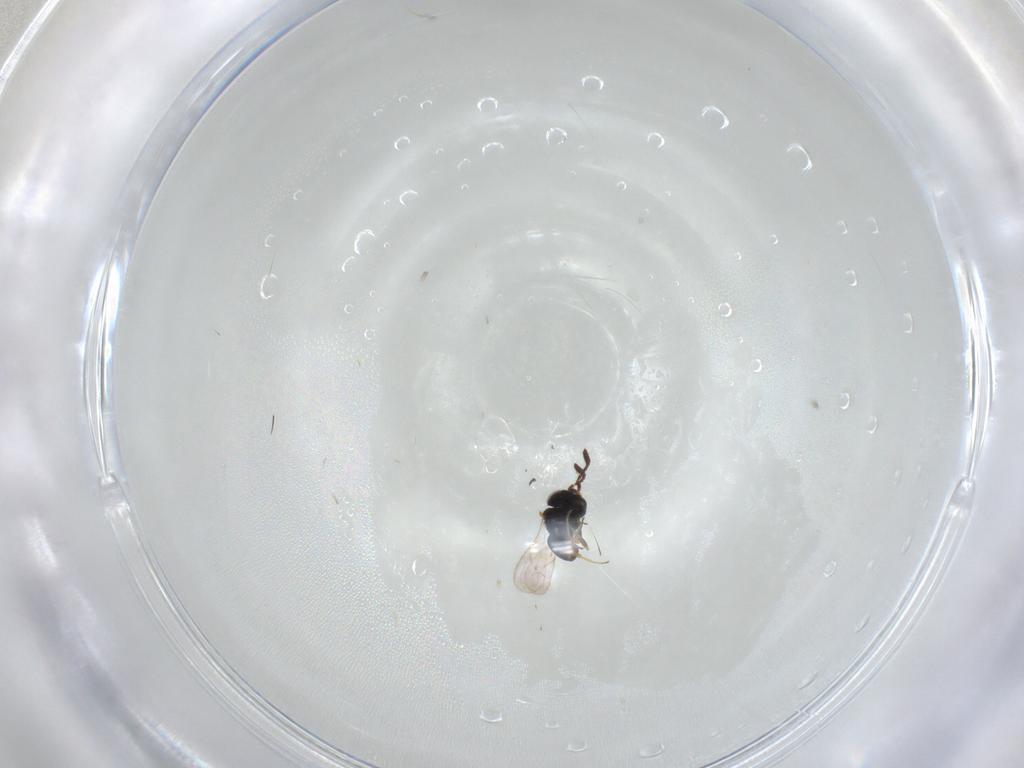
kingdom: Animalia
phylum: Arthropoda
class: Insecta
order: Hymenoptera
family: Scelionidae
